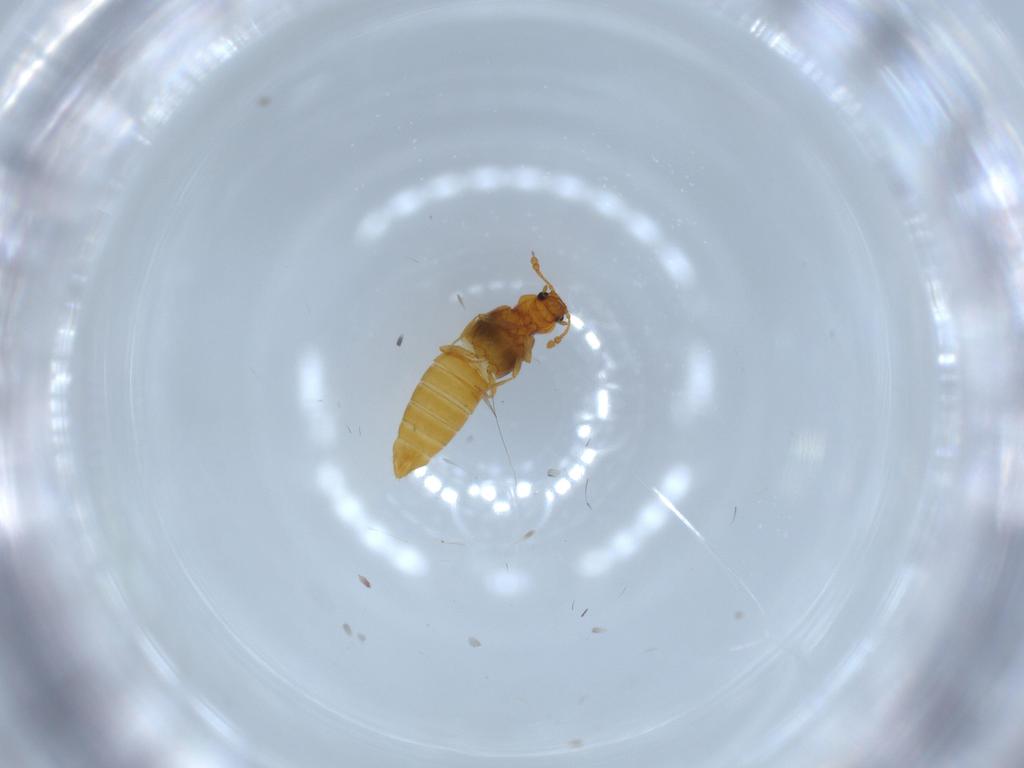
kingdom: Animalia
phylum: Arthropoda
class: Insecta
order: Coleoptera
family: Staphylinidae
